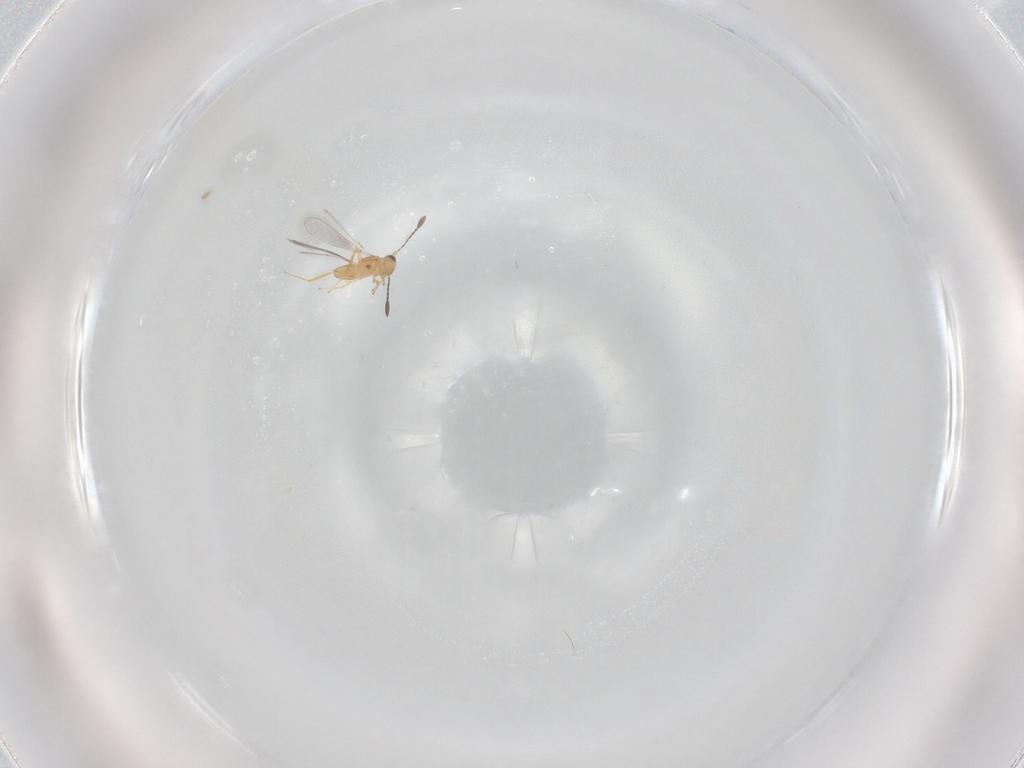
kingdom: Animalia
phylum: Arthropoda
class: Insecta
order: Hymenoptera
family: Mymaridae
